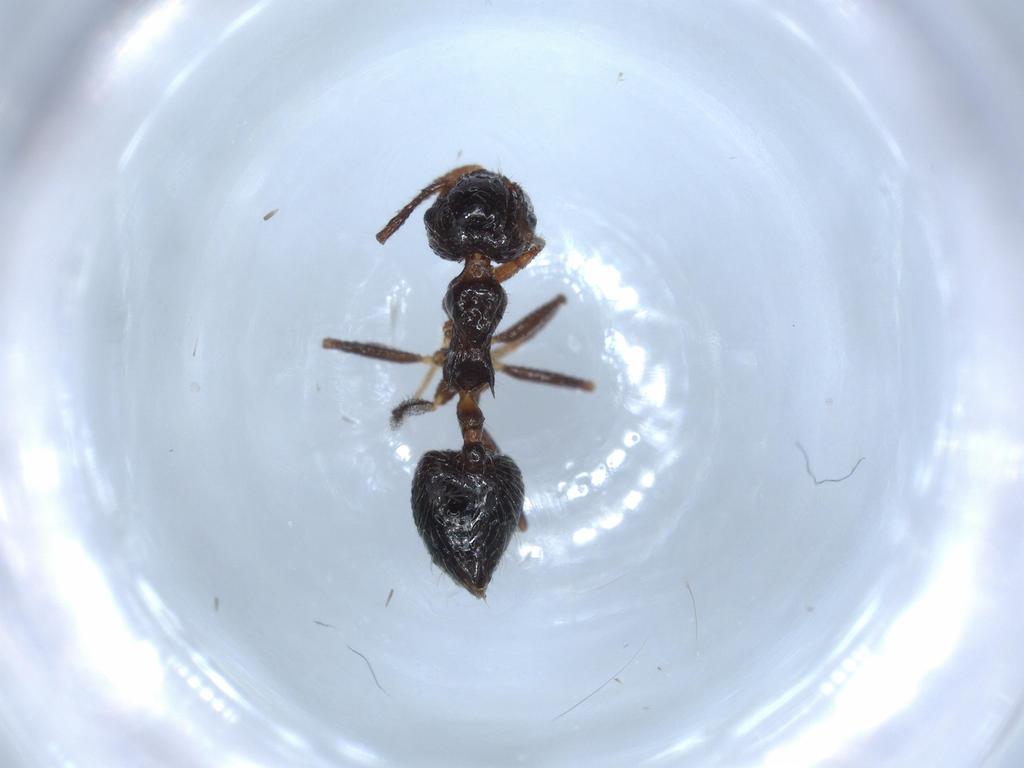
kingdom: Animalia
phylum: Arthropoda
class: Insecta
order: Hymenoptera
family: Formicidae
